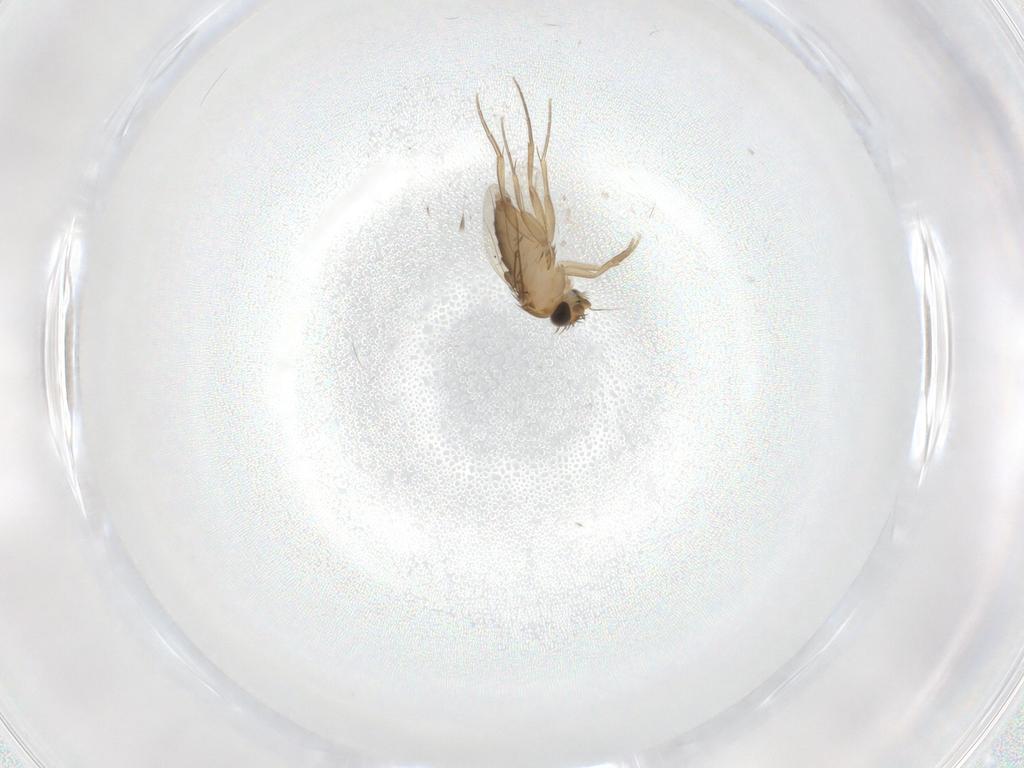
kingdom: Animalia
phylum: Arthropoda
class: Insecta
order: Diptera
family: Phoridae
